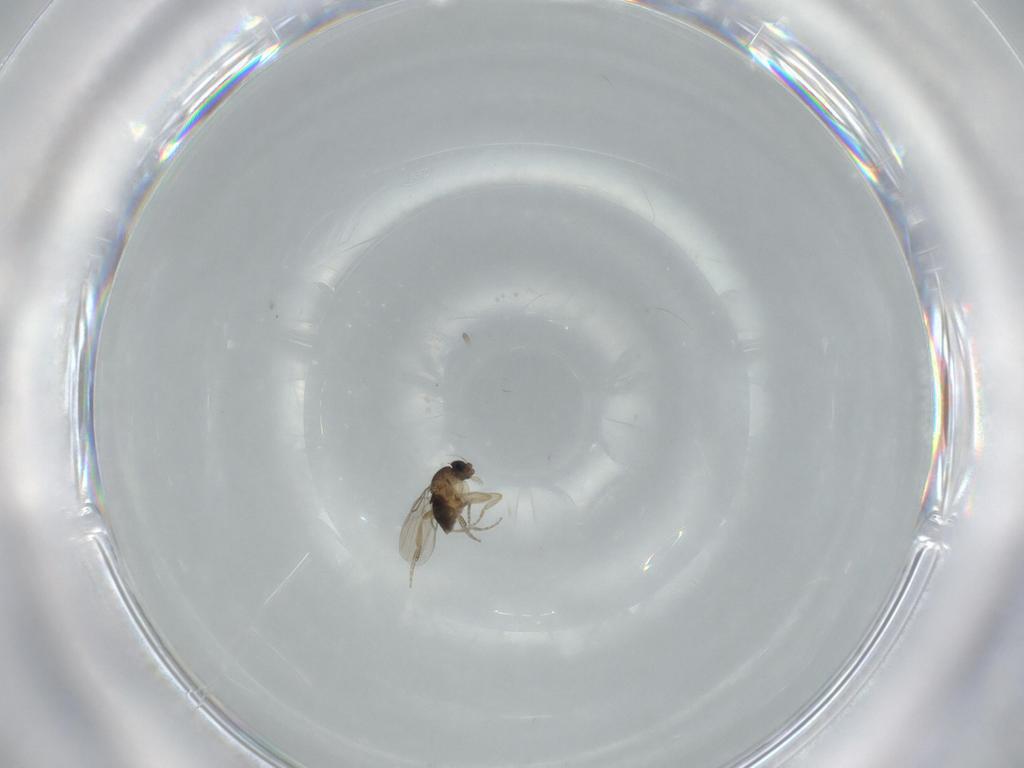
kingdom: Animalia
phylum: Arthropoda
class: Insecta
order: Diptera
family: Phoridae
